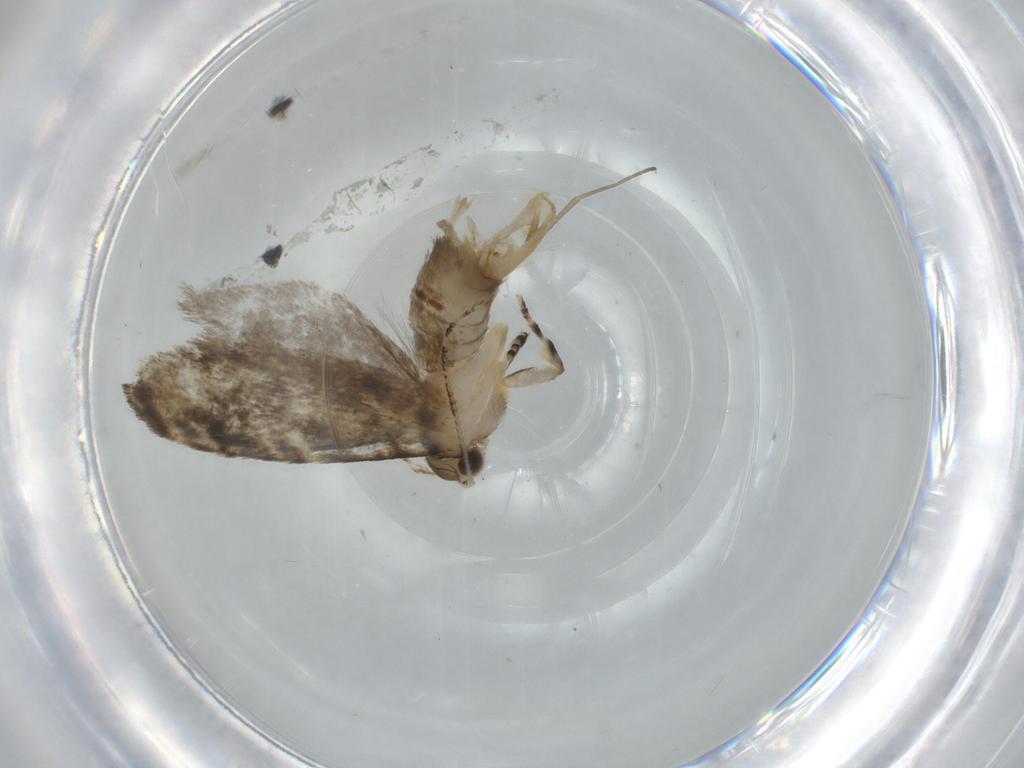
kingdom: Animalia
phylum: Arthropoda
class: Insecta
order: Lepidoptera
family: Tineidae
